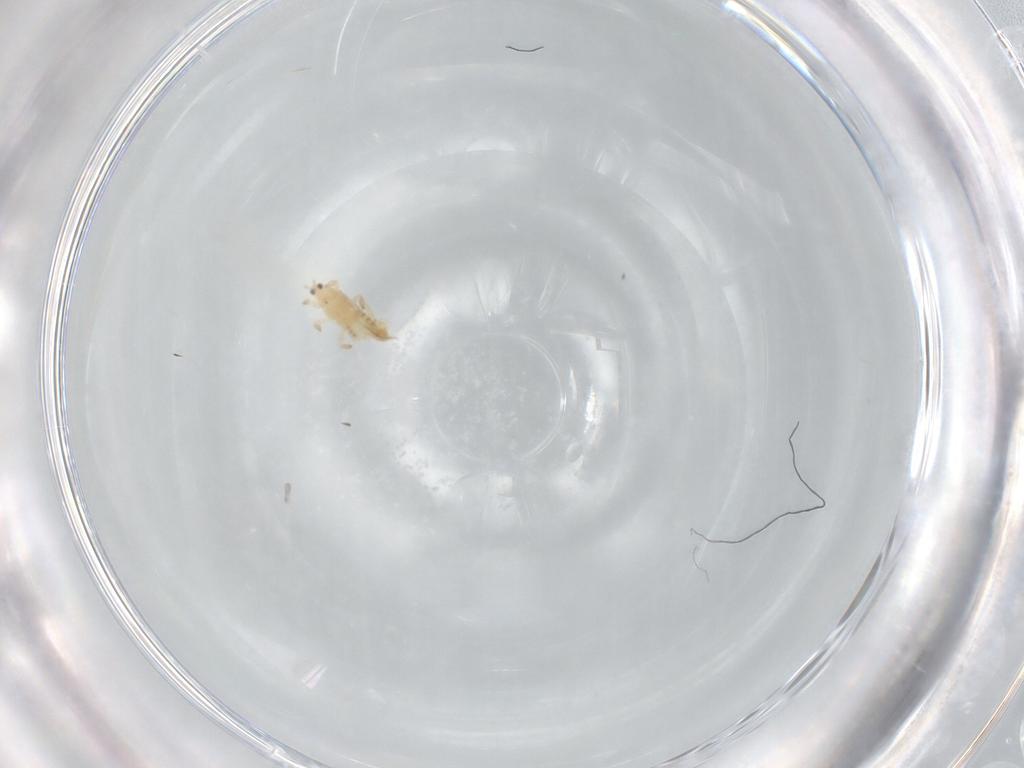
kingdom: Animalia
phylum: Arthropoda
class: Insecta
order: Thysanoptera
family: Thripidae
